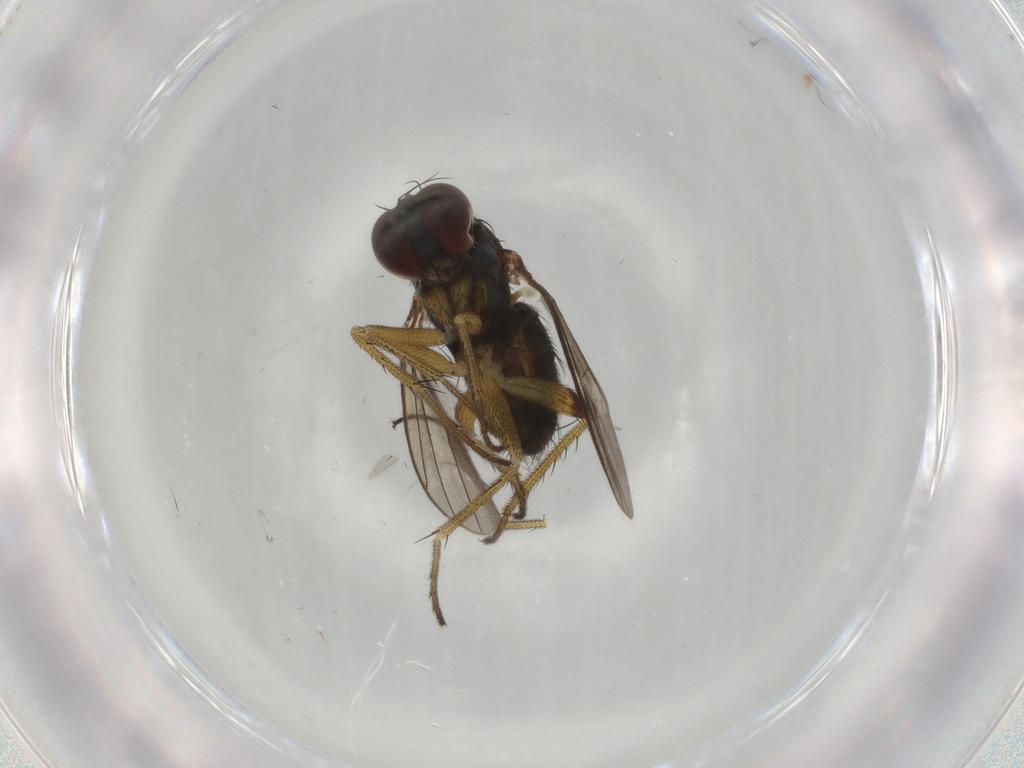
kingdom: Animalia
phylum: Arthropoda
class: Insecta
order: Diptera
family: Dolichopodidae
